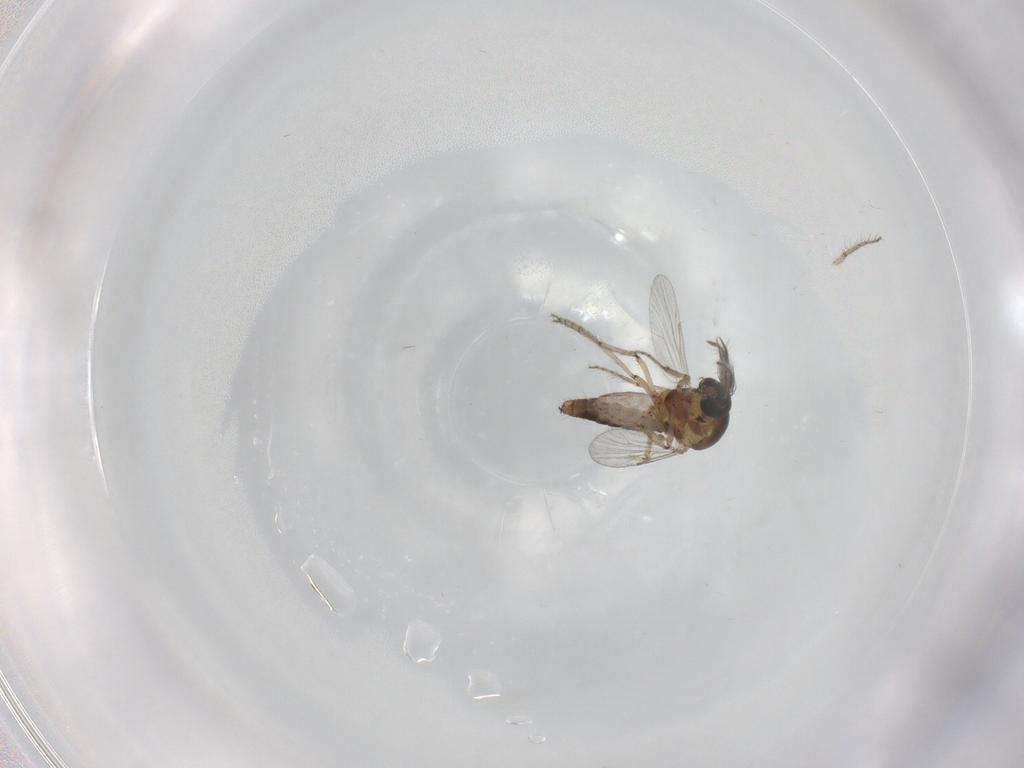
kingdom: Animalia
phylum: Arthropoda
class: Insecta
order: Diptera
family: Ceratopogonidae
